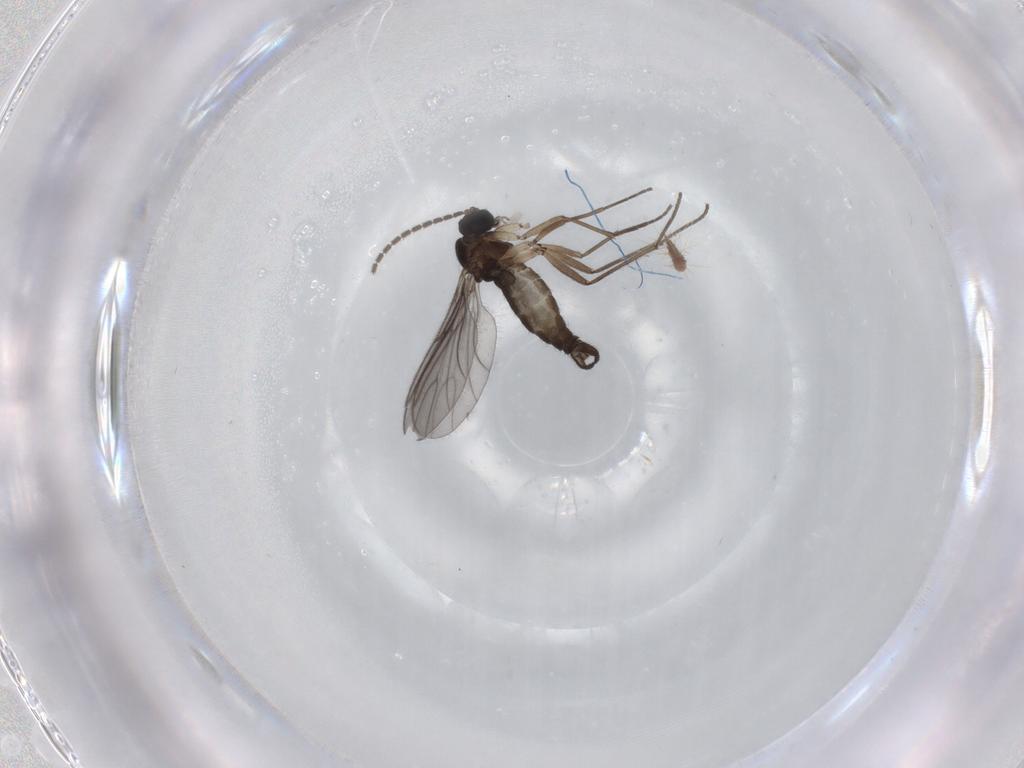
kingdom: Animalia
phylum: Arthropoda
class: Insecta
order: Diptera
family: Sciaridae
